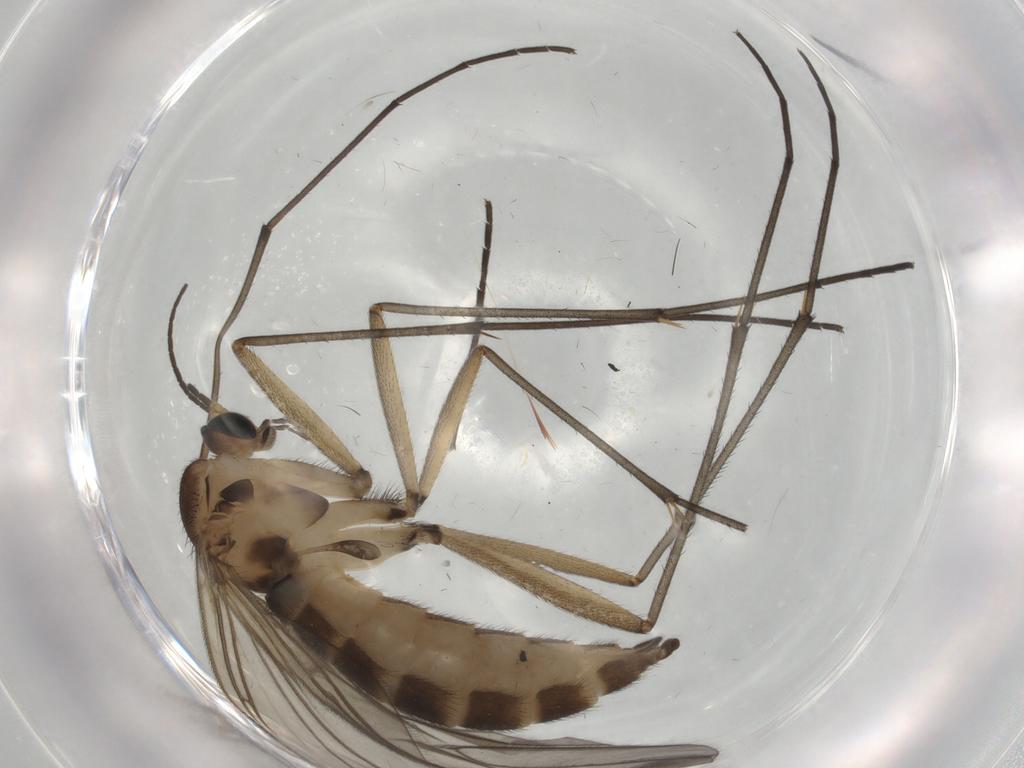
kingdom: Animalia
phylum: Arthropoda
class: Insecta
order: Diptera
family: Sciaridae
